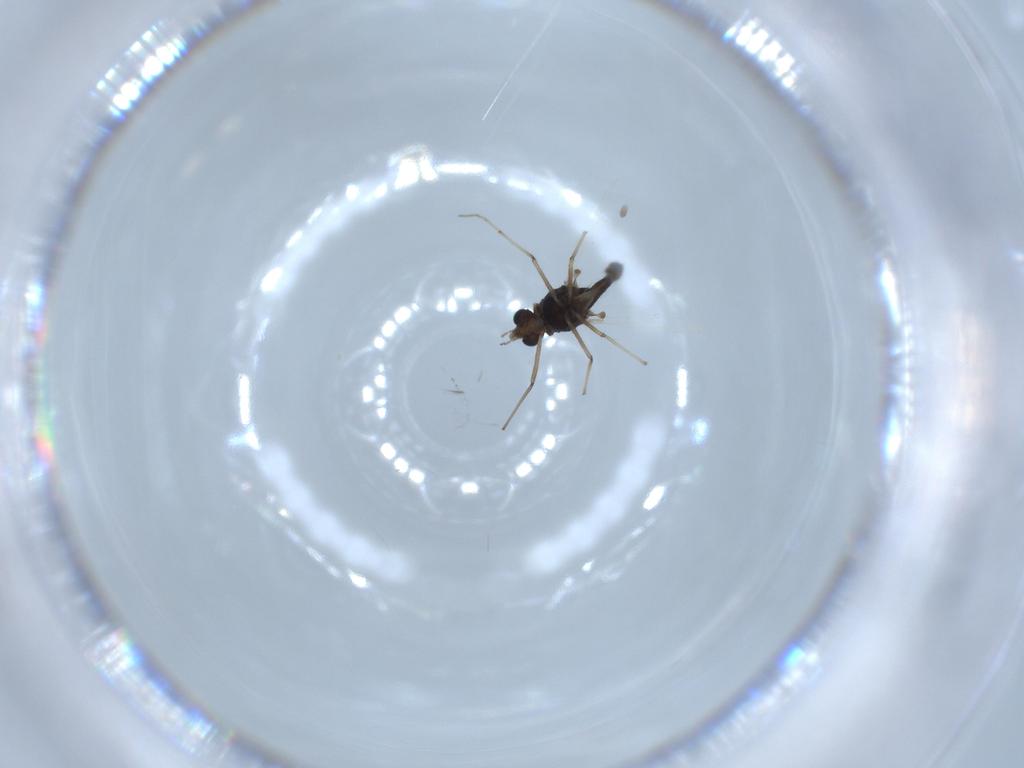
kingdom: Animalia
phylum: Arthropoda
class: Insecta
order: Diptera
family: Chironomidae
